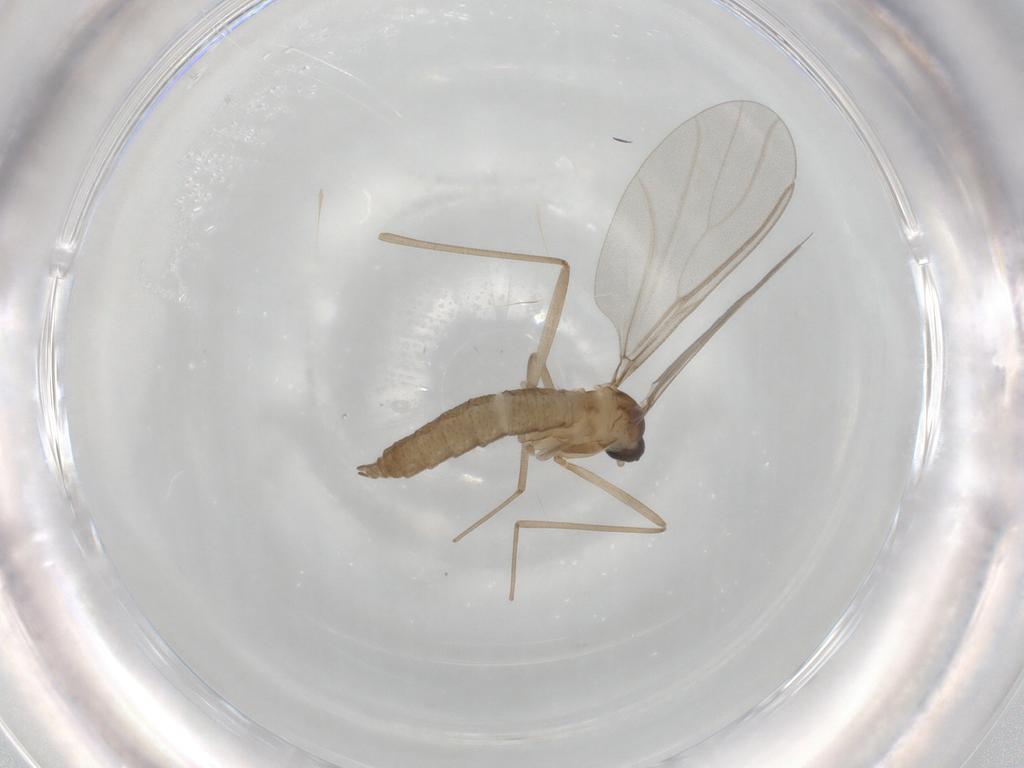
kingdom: Animalia
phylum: Arthropoda
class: Insecta
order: Diptera
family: Cecidomyiidae
